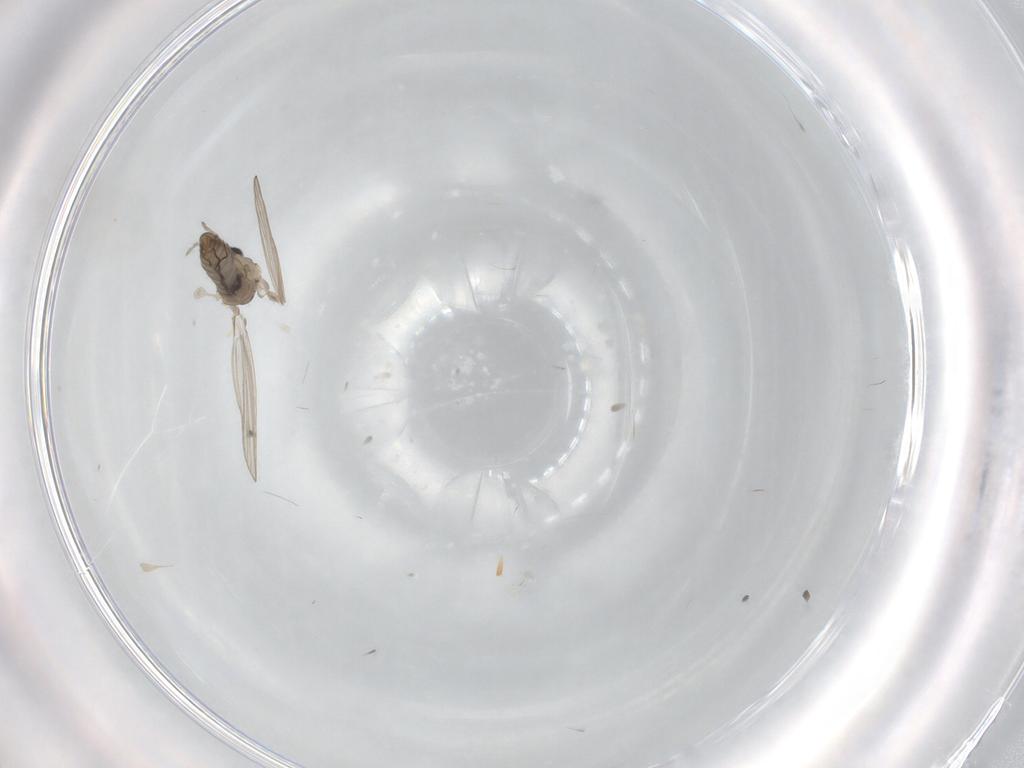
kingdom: Animalia
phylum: Arthropoda
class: Insecta
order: Diptera
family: Psychodidae
